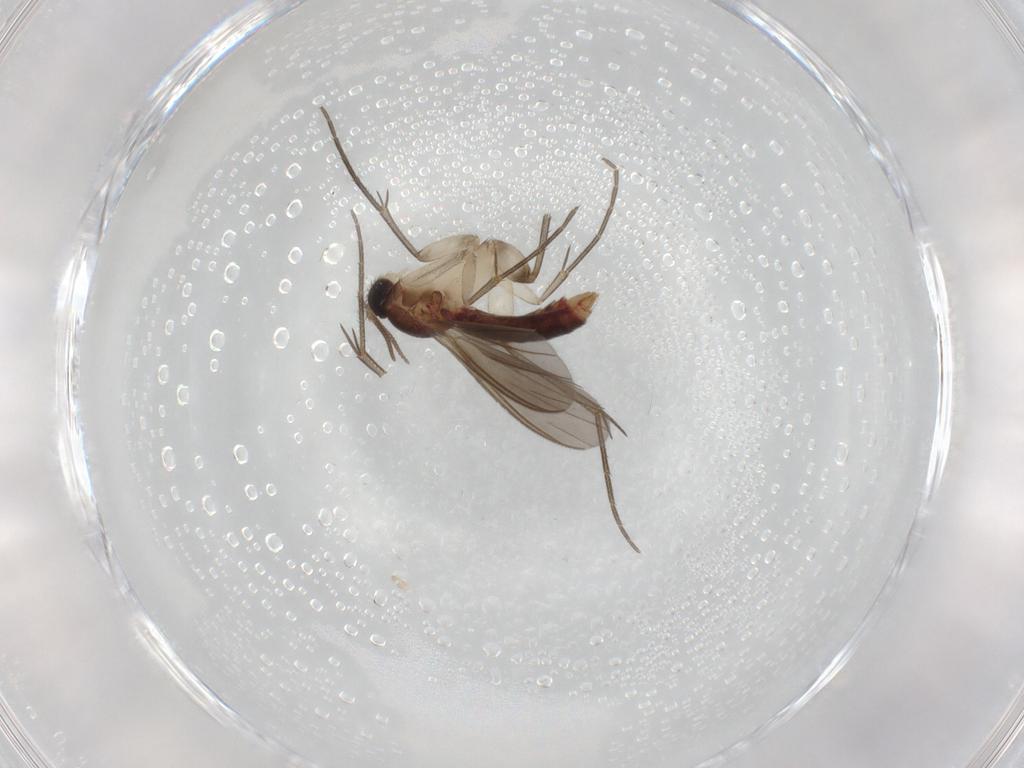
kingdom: Animalia
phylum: Arthropoda
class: Insecta
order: Diptera
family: Mycetophilidae
